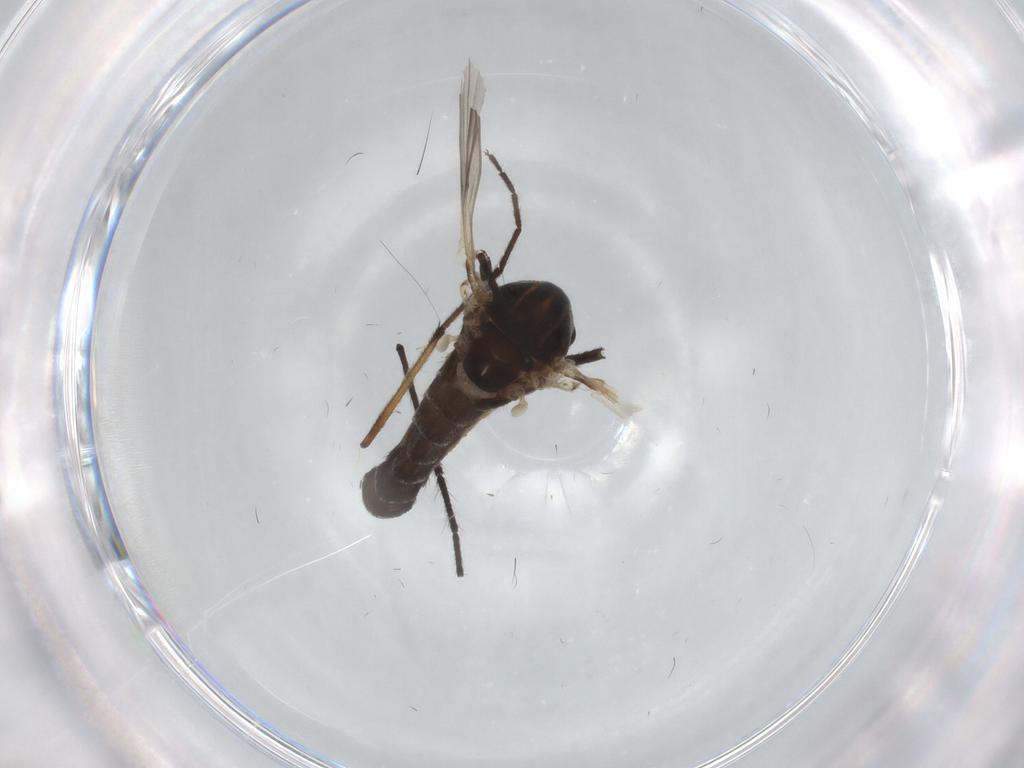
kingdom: Animalia
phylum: Arthropoda
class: Insecta
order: Diptera
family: Chironomidae
